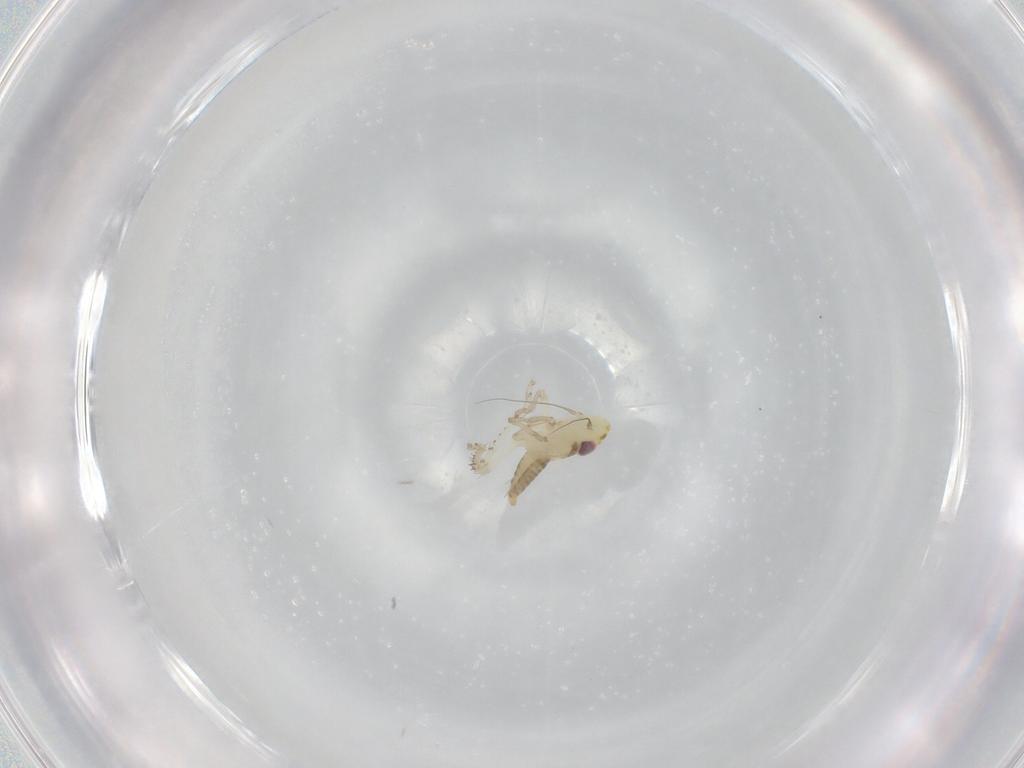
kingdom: Animalia
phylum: Arthropoda
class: Insecta
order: Hemiptera
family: Cicadellidae
